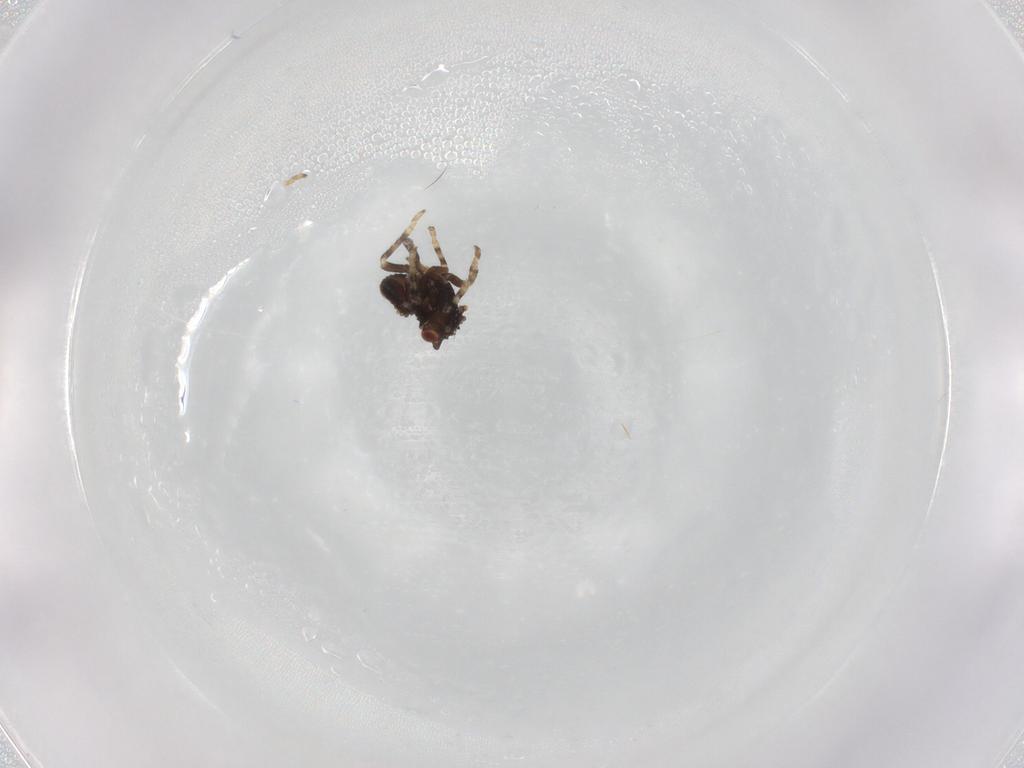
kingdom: Animalia
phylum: Arthropoda
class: Insecta
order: Hemiptera
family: Cicadellidae
